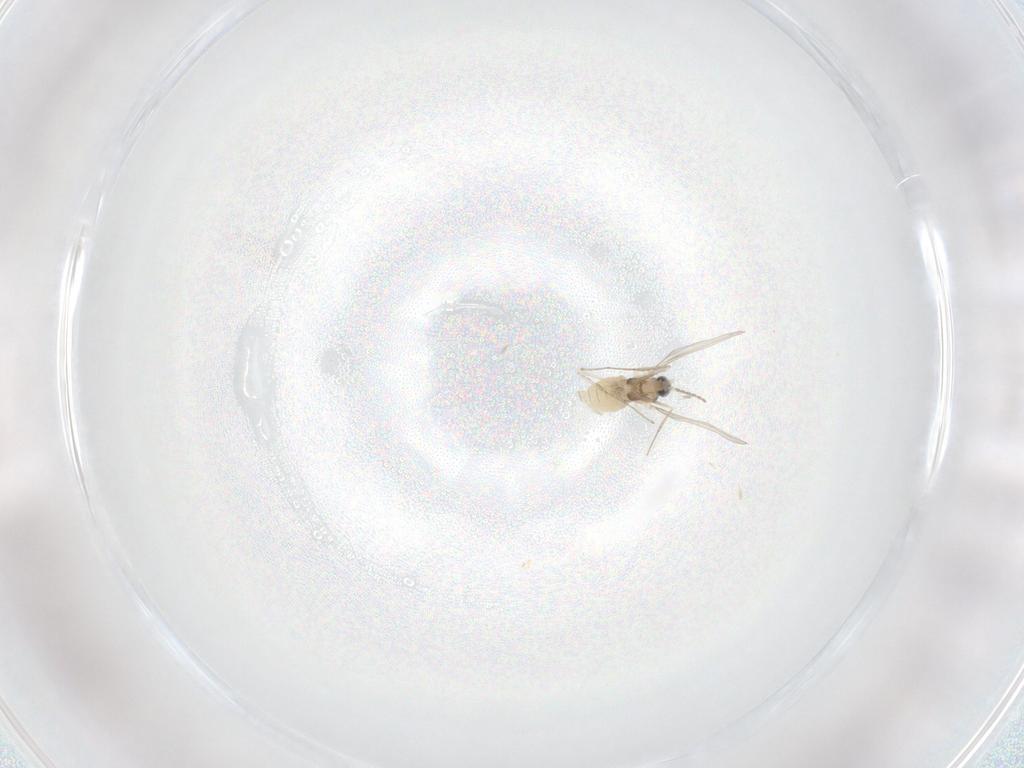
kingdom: Animalia
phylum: Arthropoda
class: Insecta
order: Diptera
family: Cecidomyiidae
